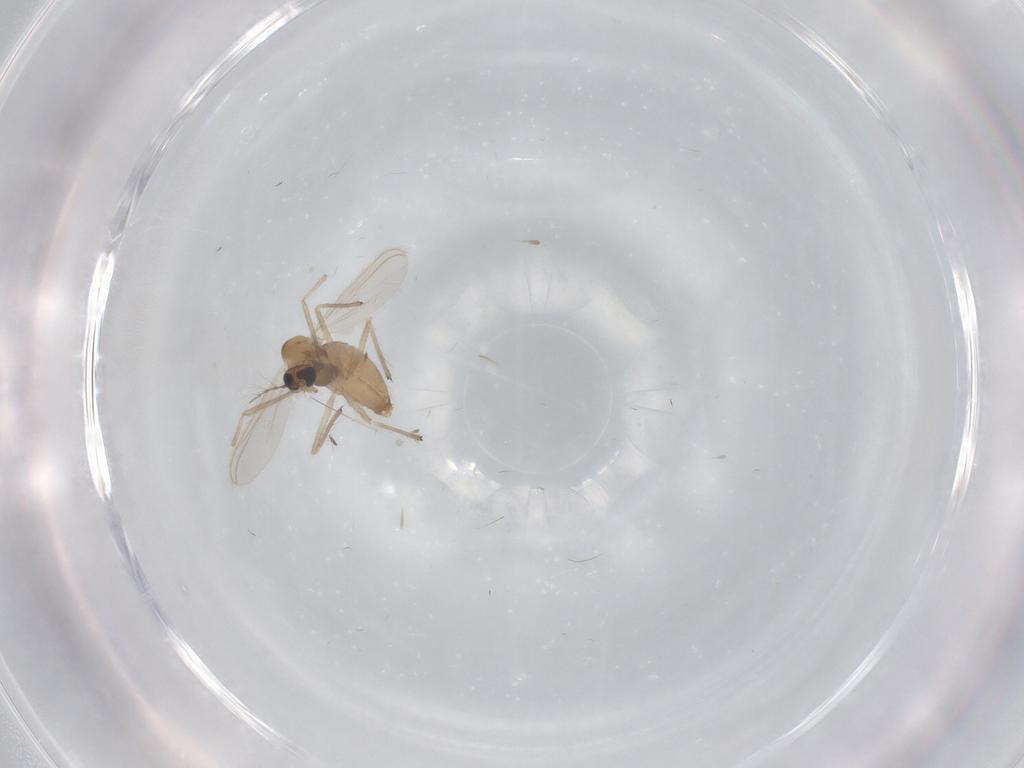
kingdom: Animalia
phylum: Arthropoda
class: Insecta
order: Diptera
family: Chironomidae
